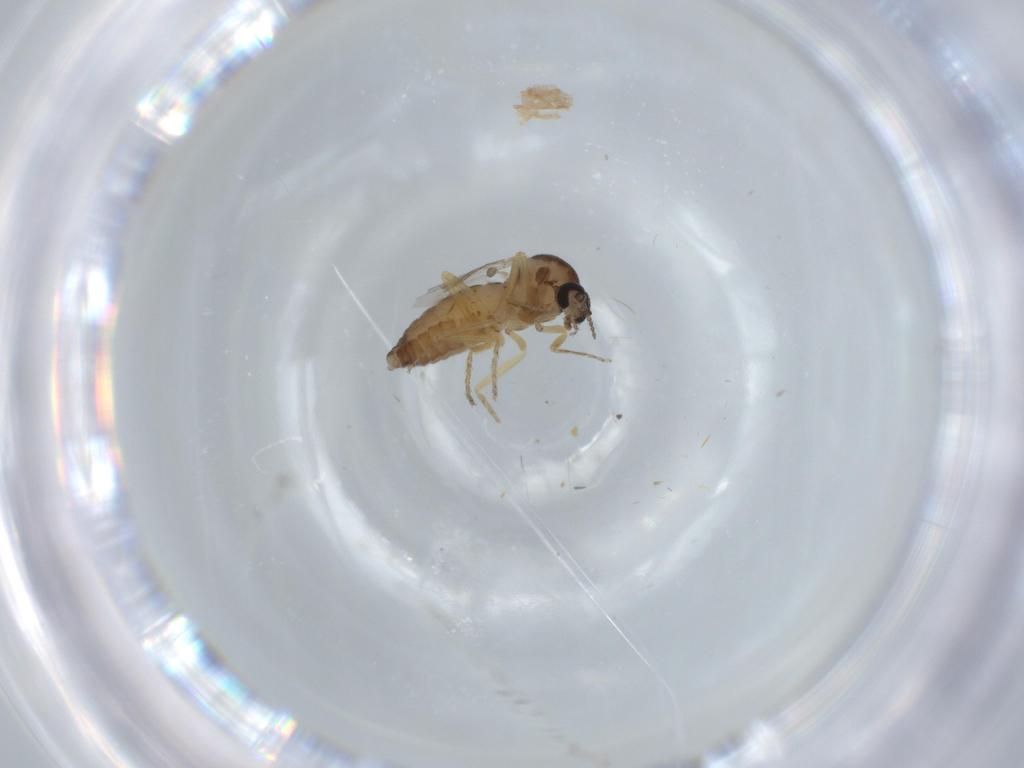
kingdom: Animalia
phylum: Arthropoda
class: Insecta
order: Diptera
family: Ceratopogonidae
